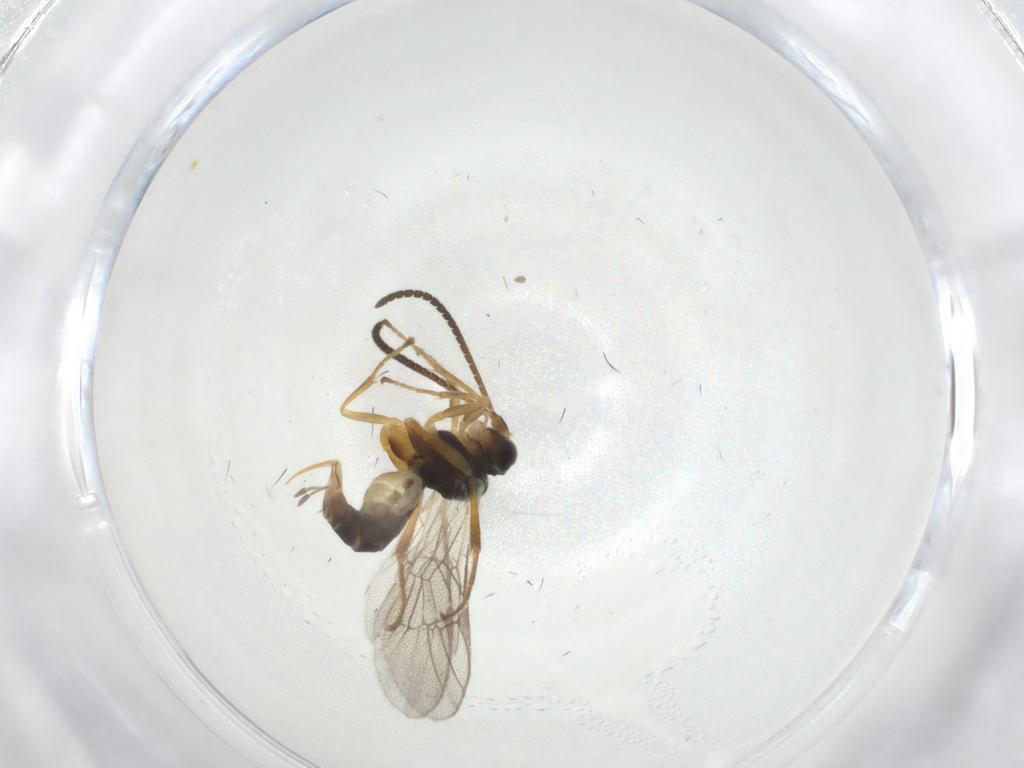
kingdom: Animalia
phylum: Arthropoda
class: Insecta
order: Hymenoptera
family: Ichneumonidae
